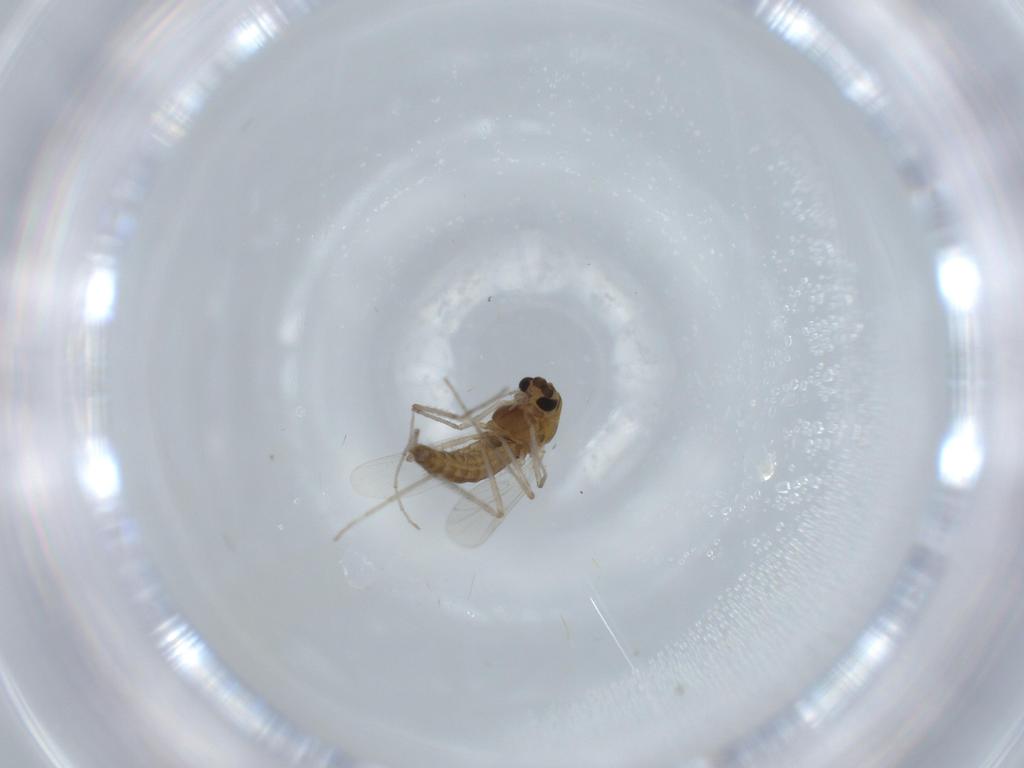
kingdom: Animalia
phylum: Arthropoda
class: Insecta
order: Diptera
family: Chironomidae
